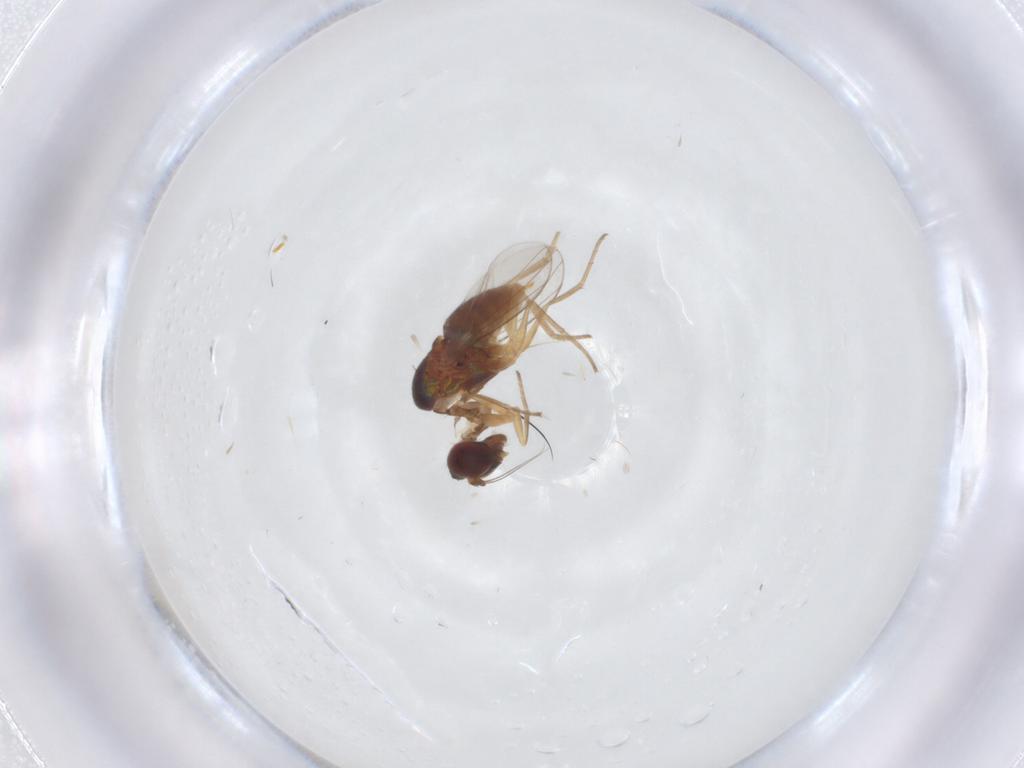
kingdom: Animalia
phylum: Arthropoda
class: Insecta
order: Diptera
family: Dolichopodidae
